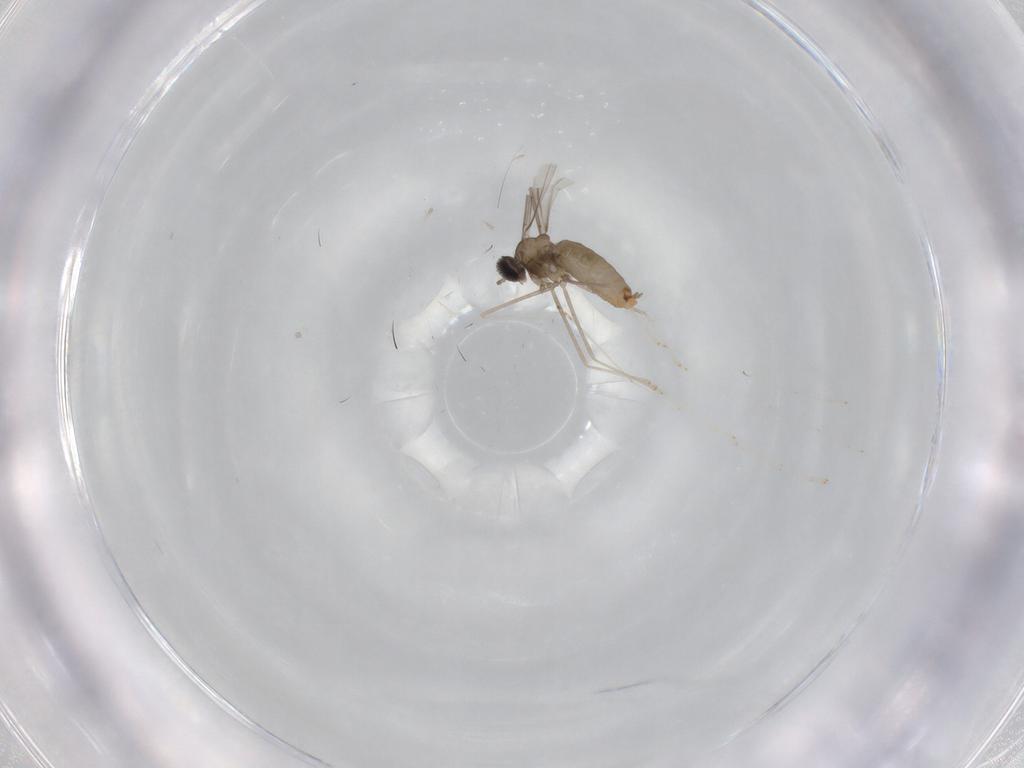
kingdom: Animalia
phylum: Arthropoda
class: Insecta
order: Diptera
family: Cecidomyiidae
